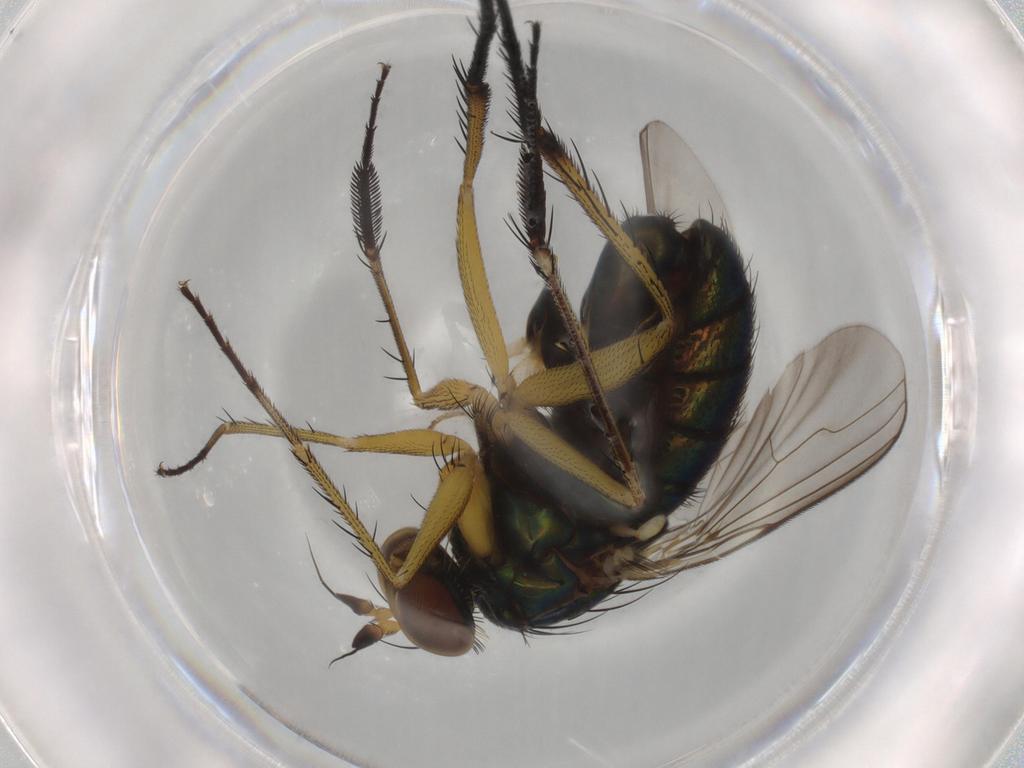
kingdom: Animalia
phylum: Arthropoda
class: Insecta
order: Diptera
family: Dolichopodidae
